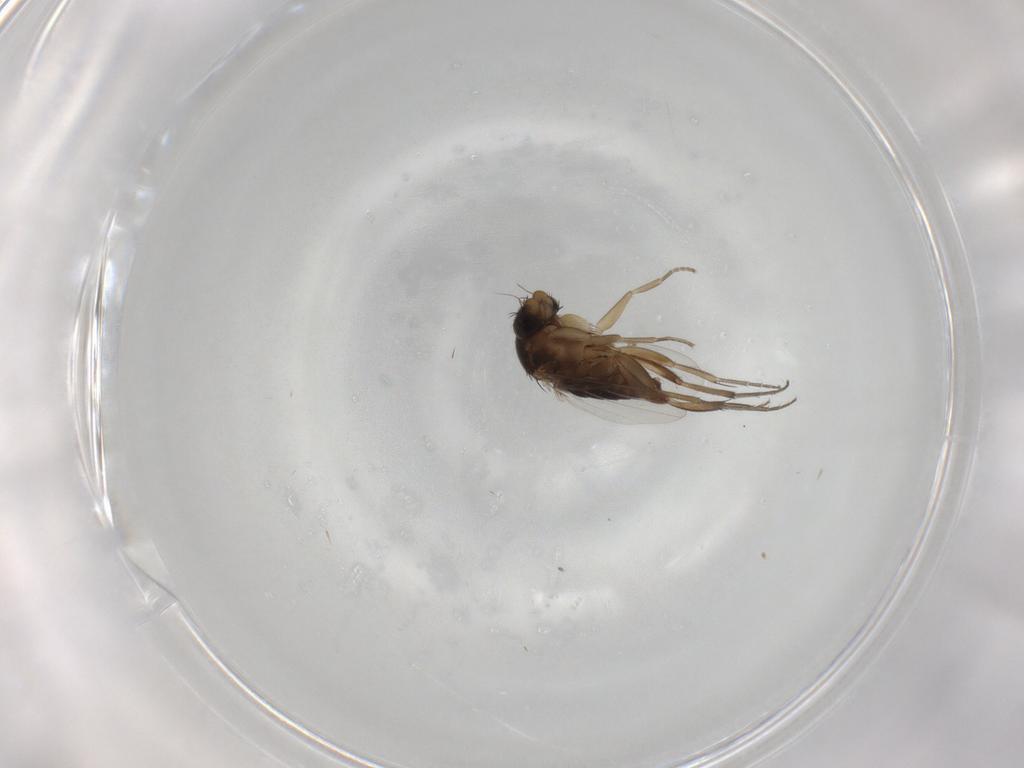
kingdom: Animalia
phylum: Arthropoda
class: Insecta
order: Diptera
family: Phoridae
